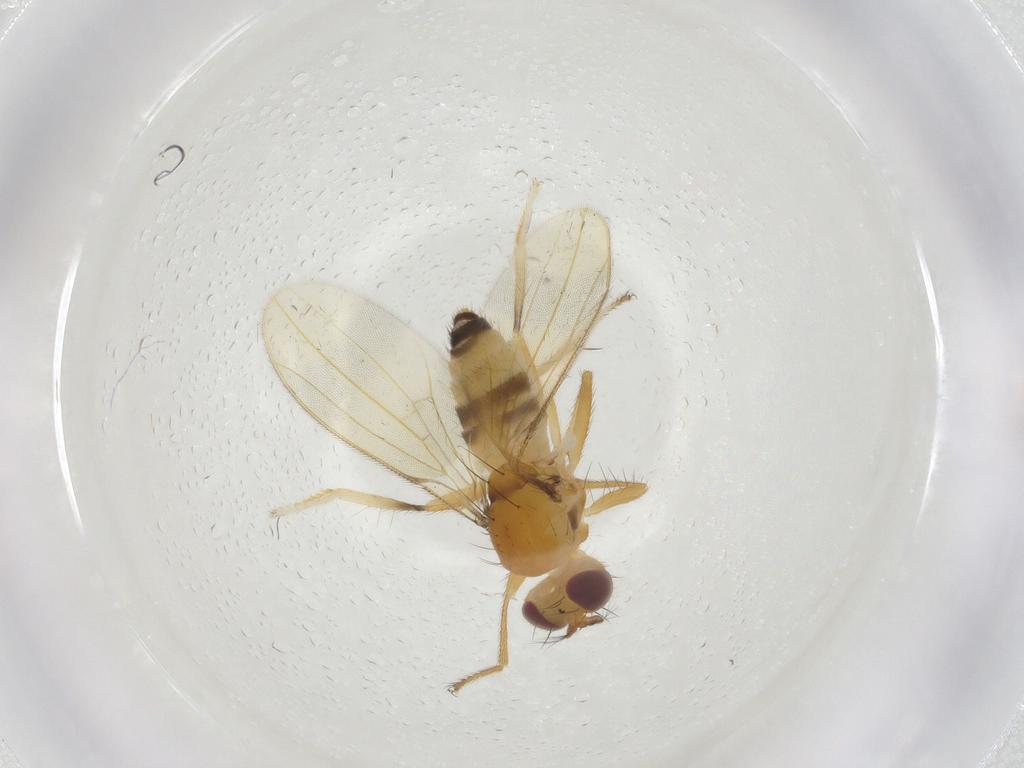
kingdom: Animalia
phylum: Arthropoda
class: Insecta
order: Diptera
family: Periscelididae
